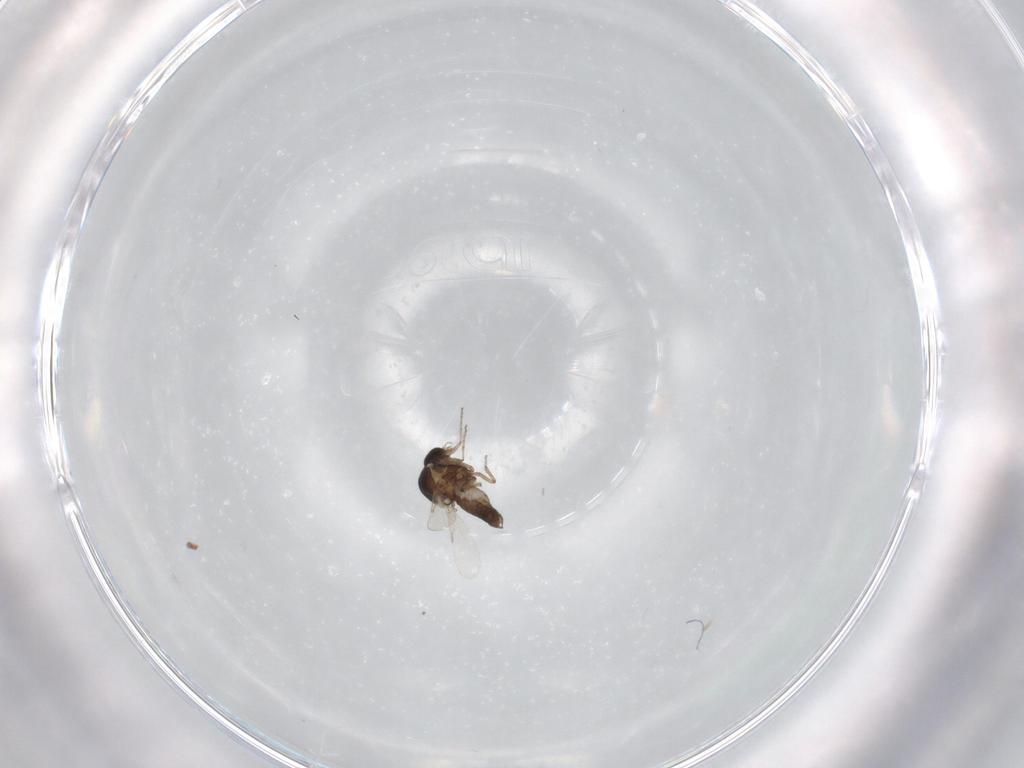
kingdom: Animalia
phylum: Arthropoda
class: Insecta
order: Diptera
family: Ceratopogonidae
